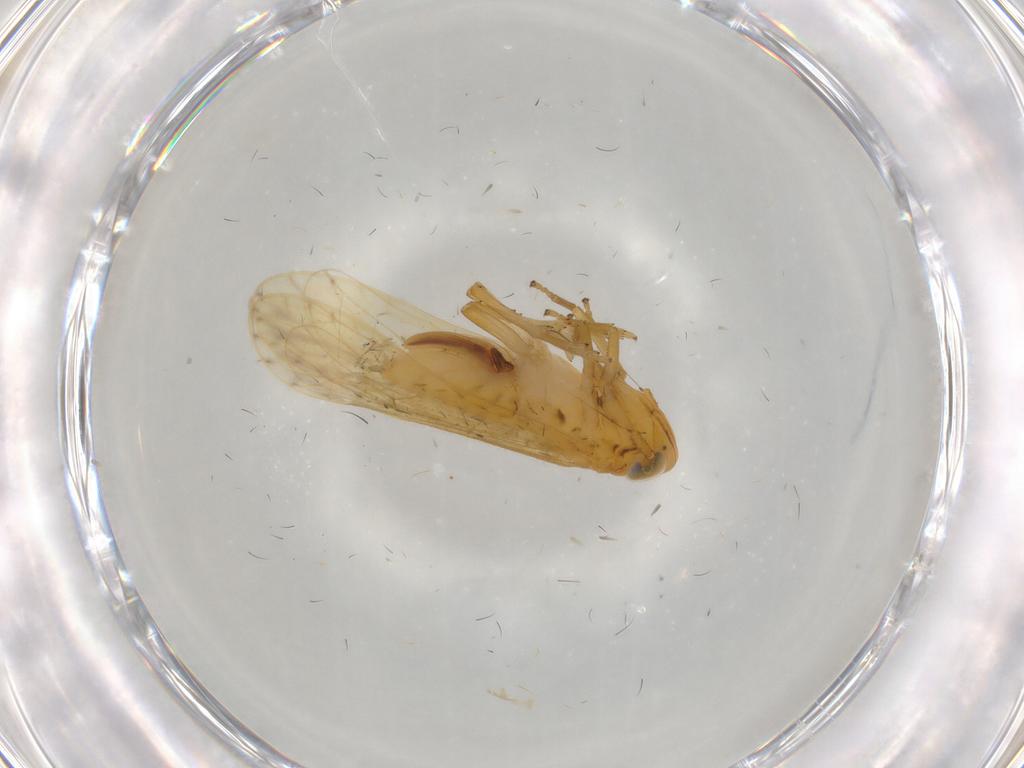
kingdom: Animalia
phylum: Arthropoda
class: Insecta
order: Hemiptera
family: Delphacidae
